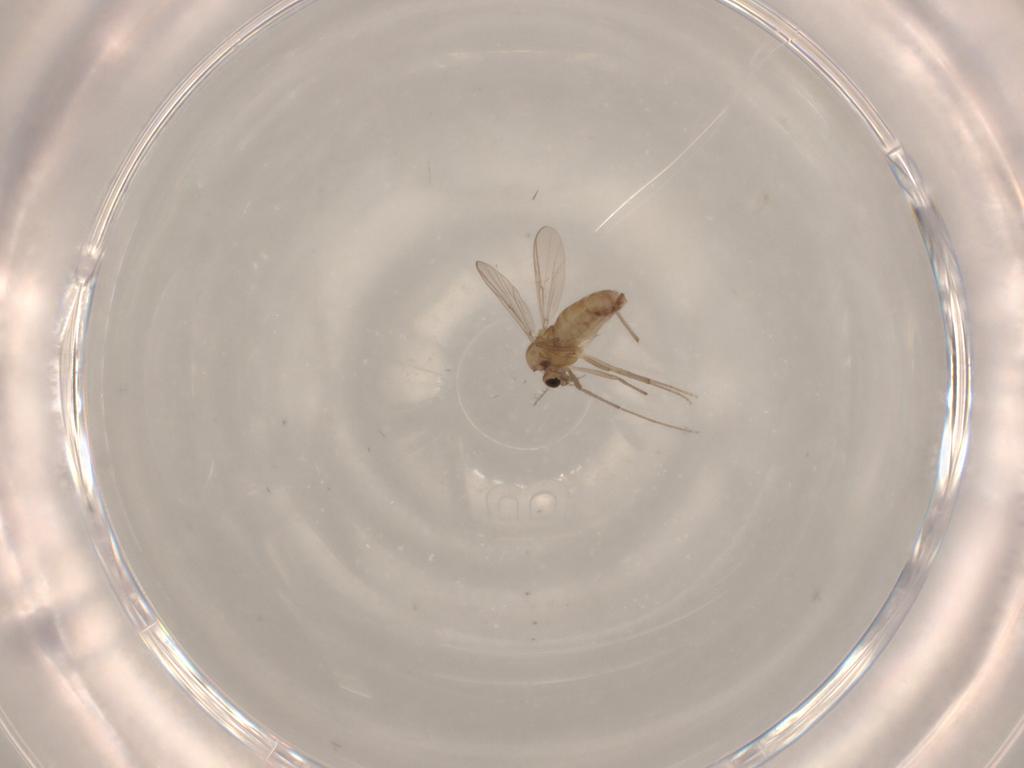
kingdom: Animalia
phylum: Arthropoda
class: Insecta
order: Diptera
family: Chironomidae
